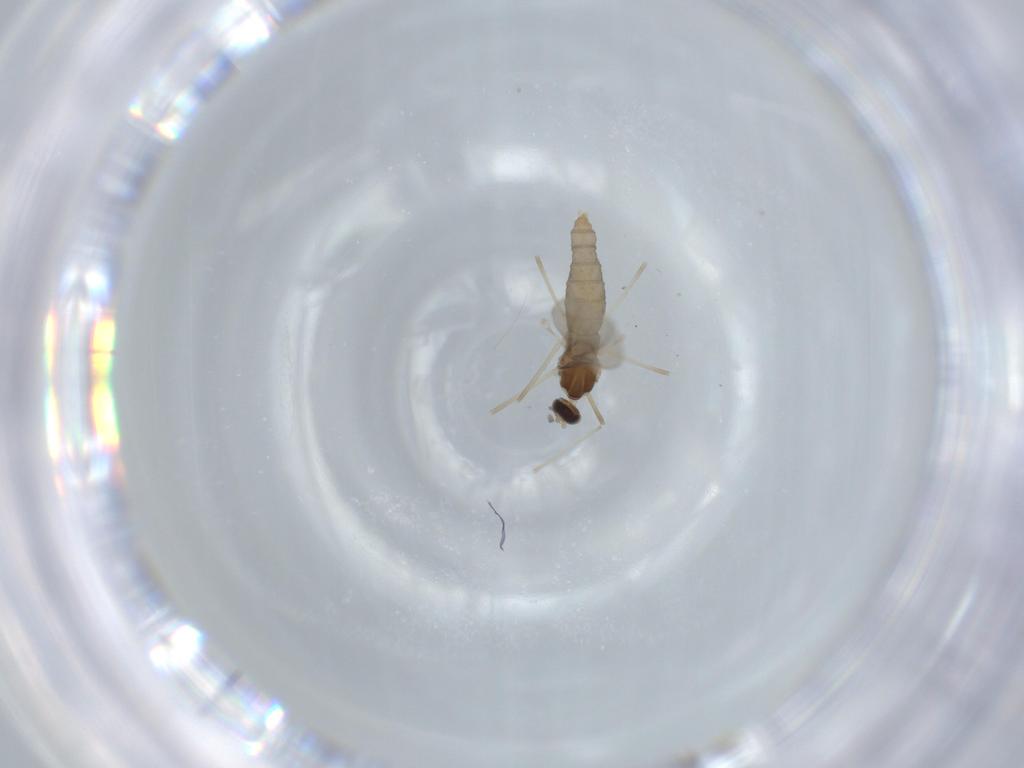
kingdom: Animalia
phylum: Arthropoda
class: Insecta
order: Diptera
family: Cecidomyiidae
